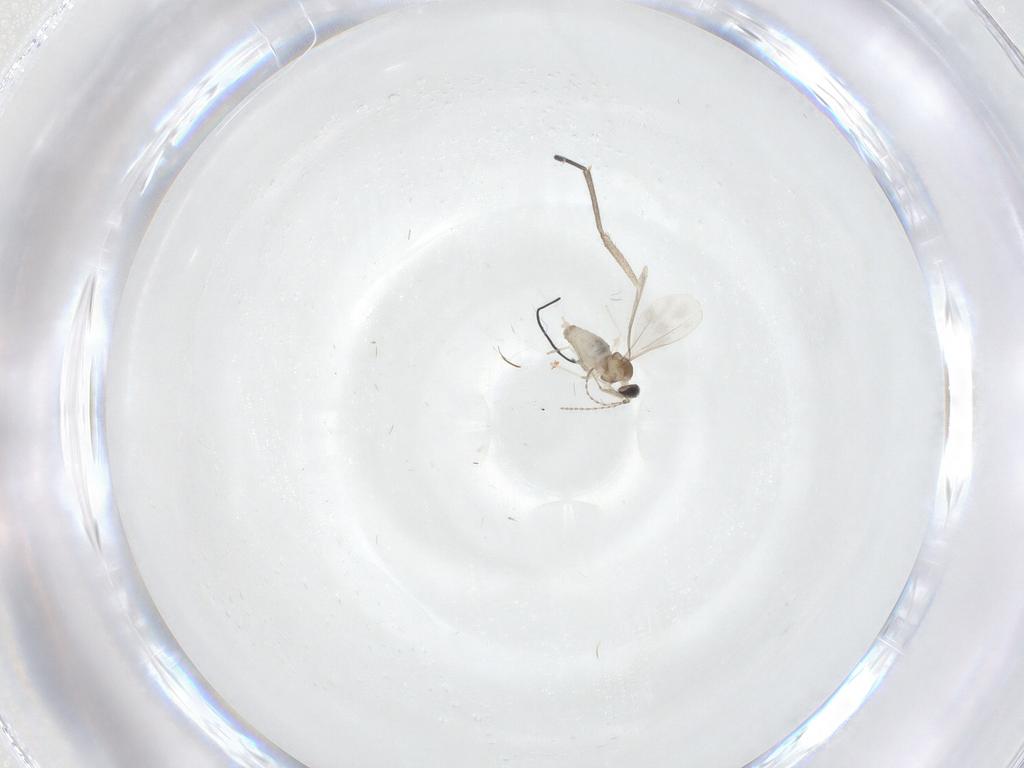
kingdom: Animalia
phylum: Arthropoda
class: Insecta
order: Diptera
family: Cecidomyiidae
